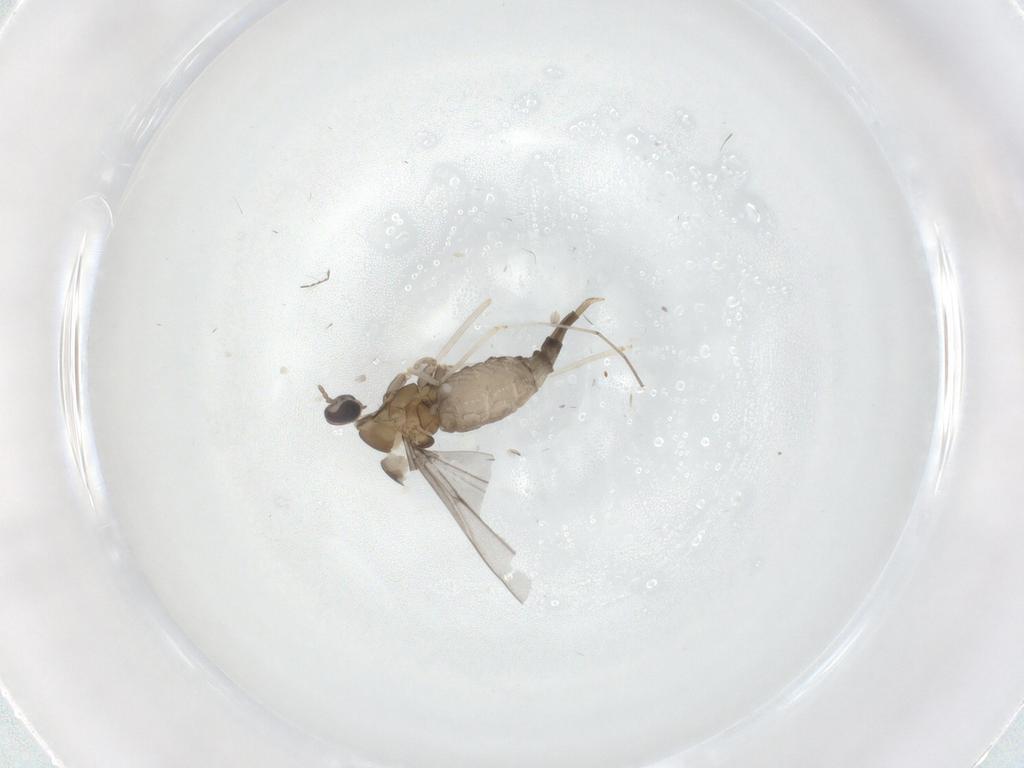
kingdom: Animalia
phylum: Arthropoda
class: Insecta
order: Diptera
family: Cecidomyiidae
